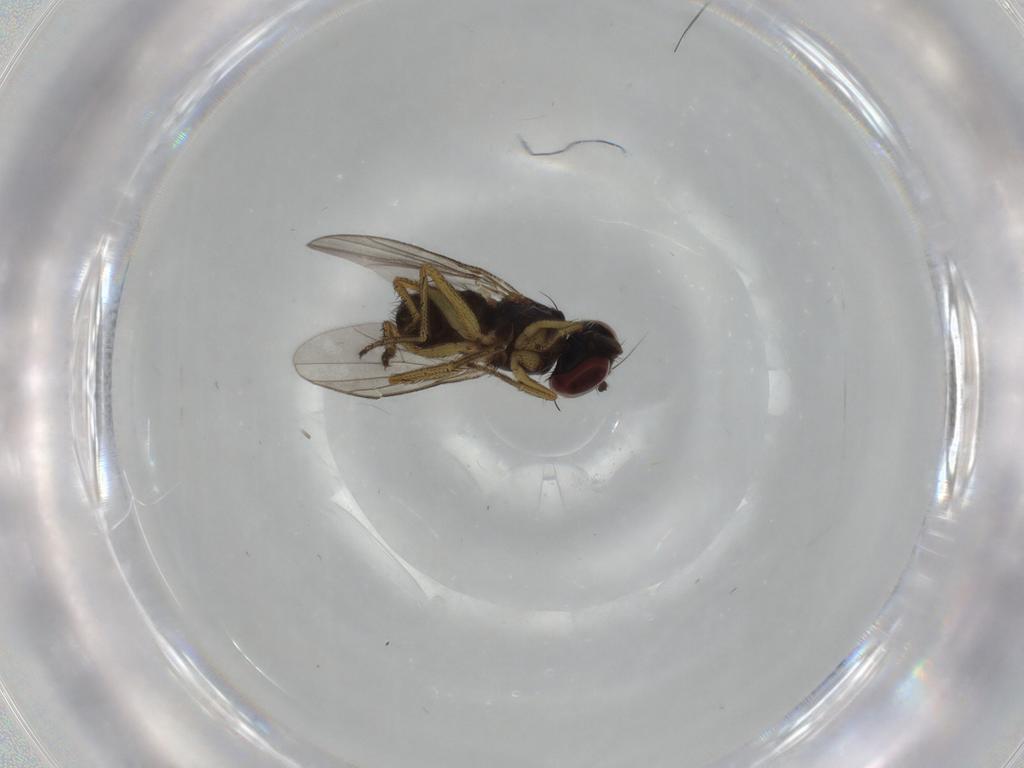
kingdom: Animalia
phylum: Arthropoda
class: Insecta
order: Diptera
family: Dolichopodidae
